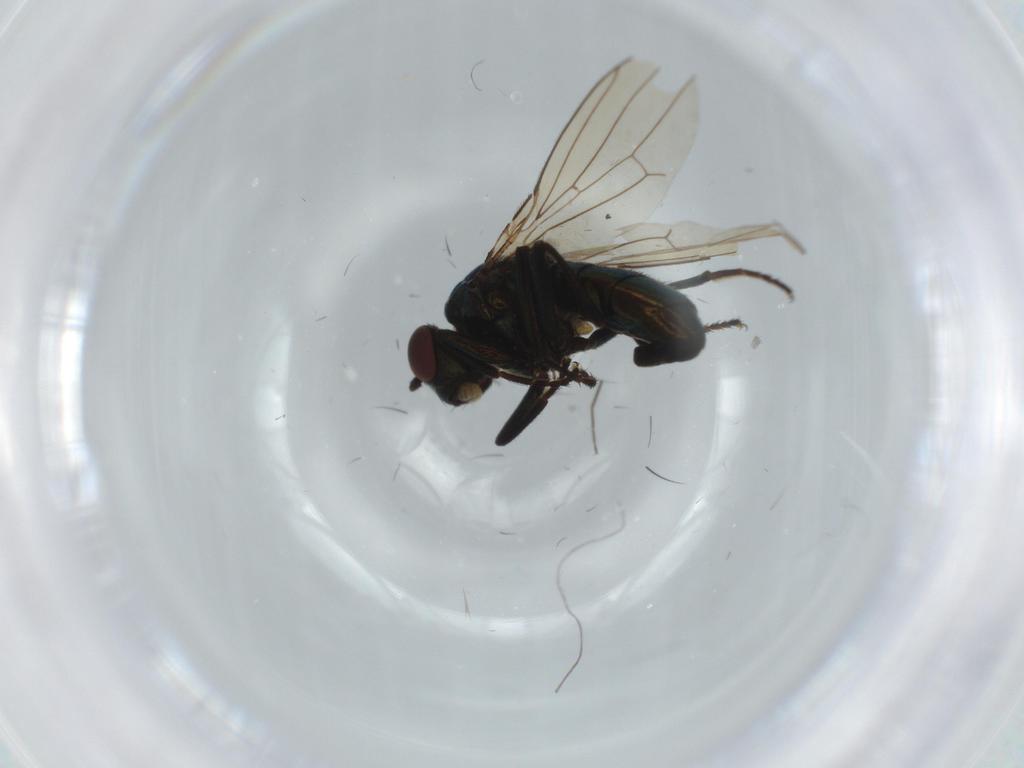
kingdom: Animalia
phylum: Arthropoda
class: Insecta
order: Diptera
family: Ephydridae
